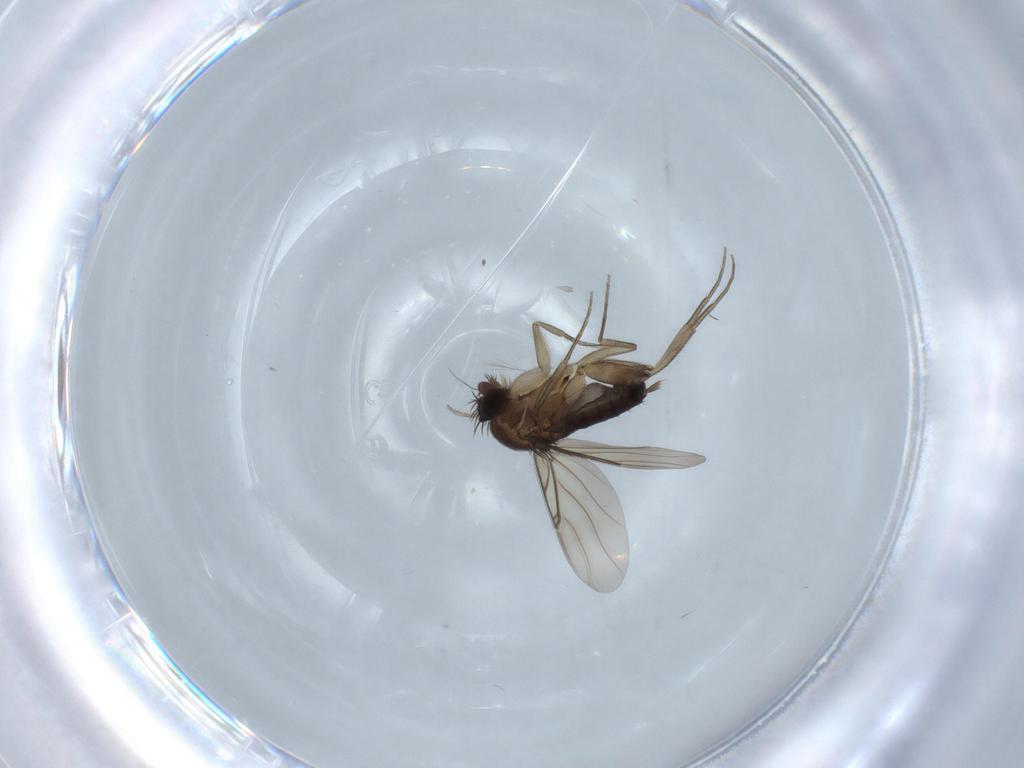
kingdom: Animalia
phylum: Arthropoda
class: Insecta
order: Diptera
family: Phoridae
